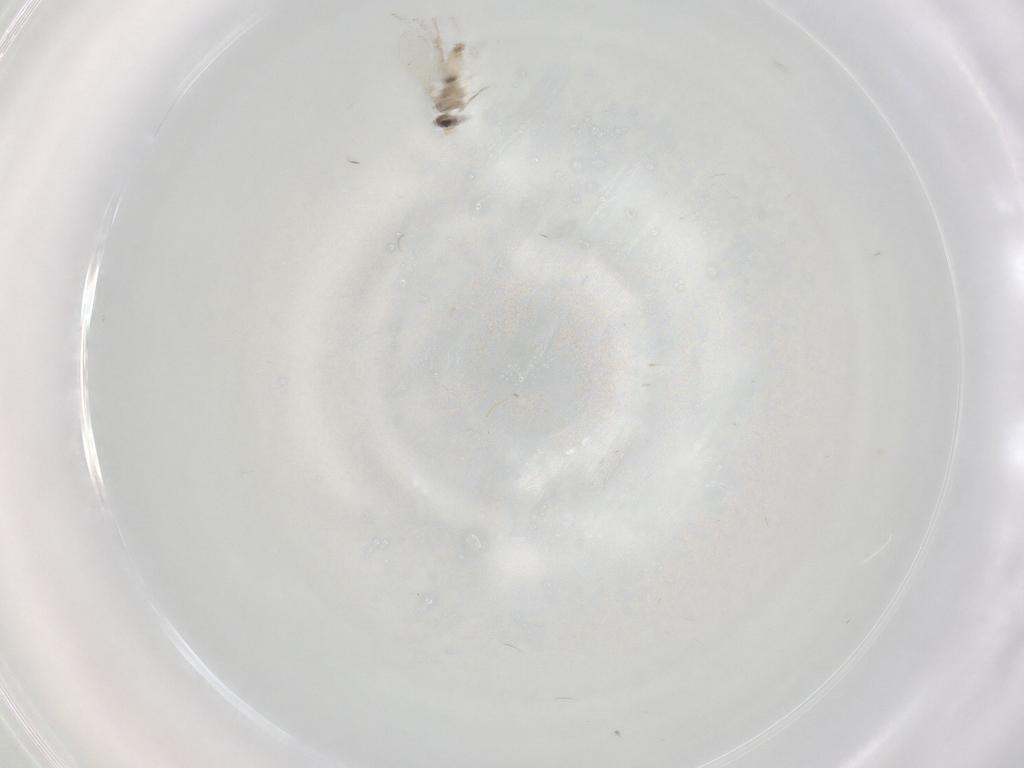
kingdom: Animalia
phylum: Arthropoda
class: Insecta
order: Diptera
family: Cecidomyiidae
